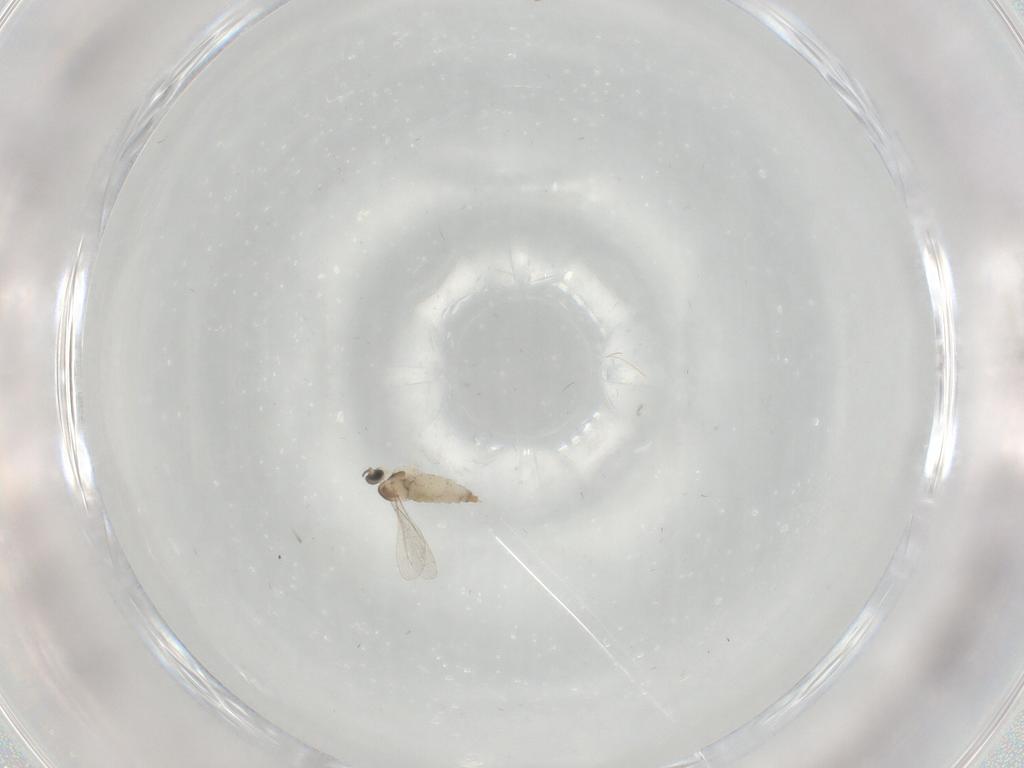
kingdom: Animalia
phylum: Arthropoda
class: Insecta
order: Diptera
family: Cecidomyiidae
